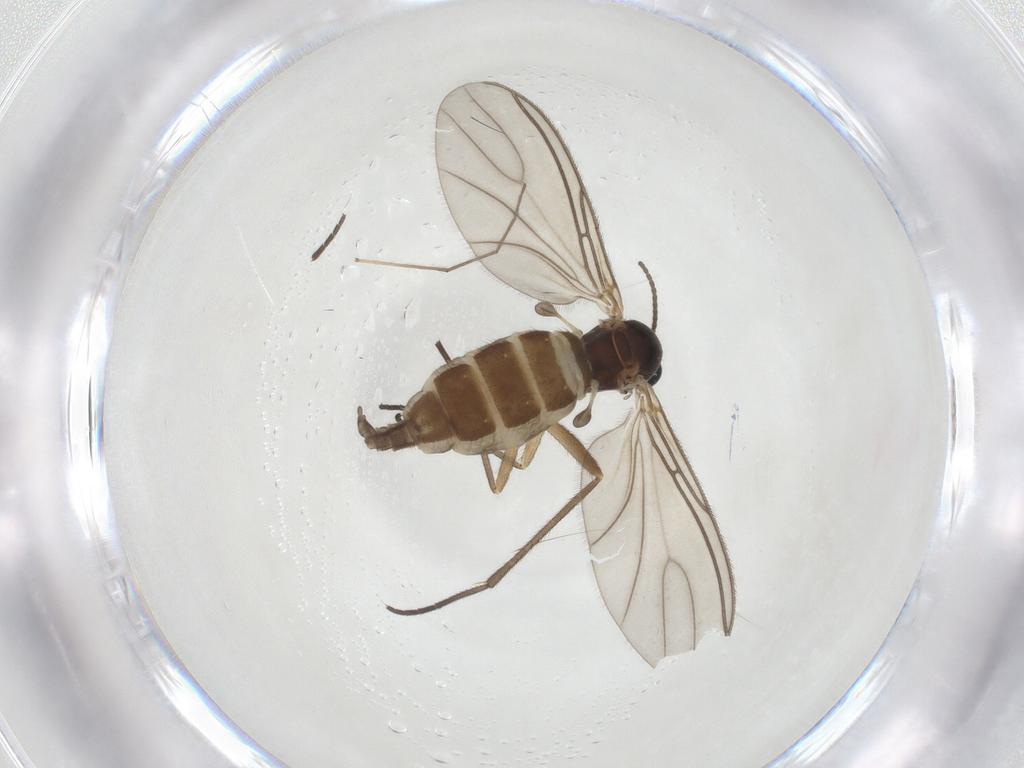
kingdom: Animalia
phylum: Arthropoda
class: Insecta
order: Diptera
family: Sciaridae
